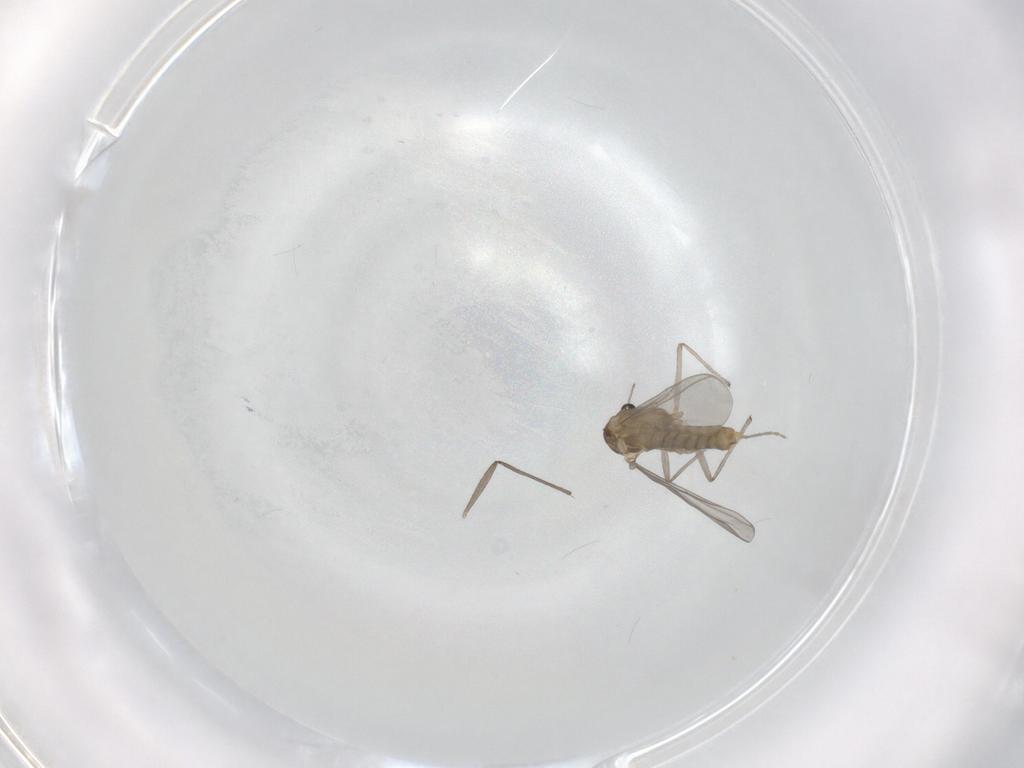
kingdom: Animalia
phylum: Arthropoda
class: Insecta
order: Diptera
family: Chironomidae
